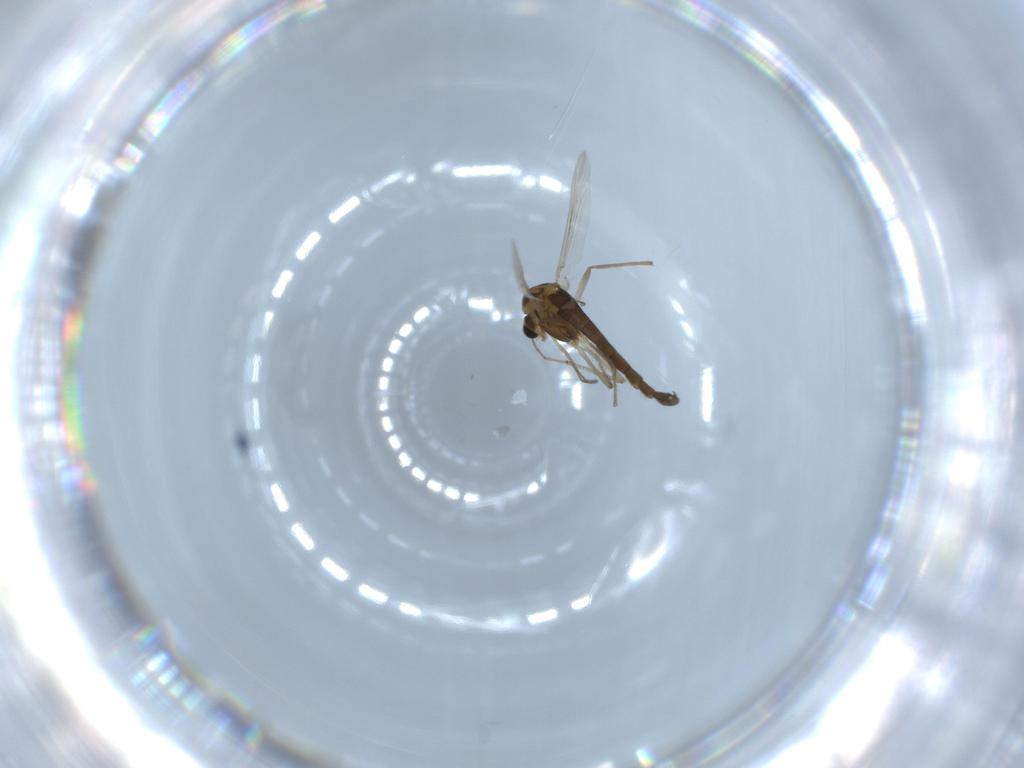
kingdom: Animalia
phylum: Arthropoda
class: Insecta
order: Diptera
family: Chironomidae
